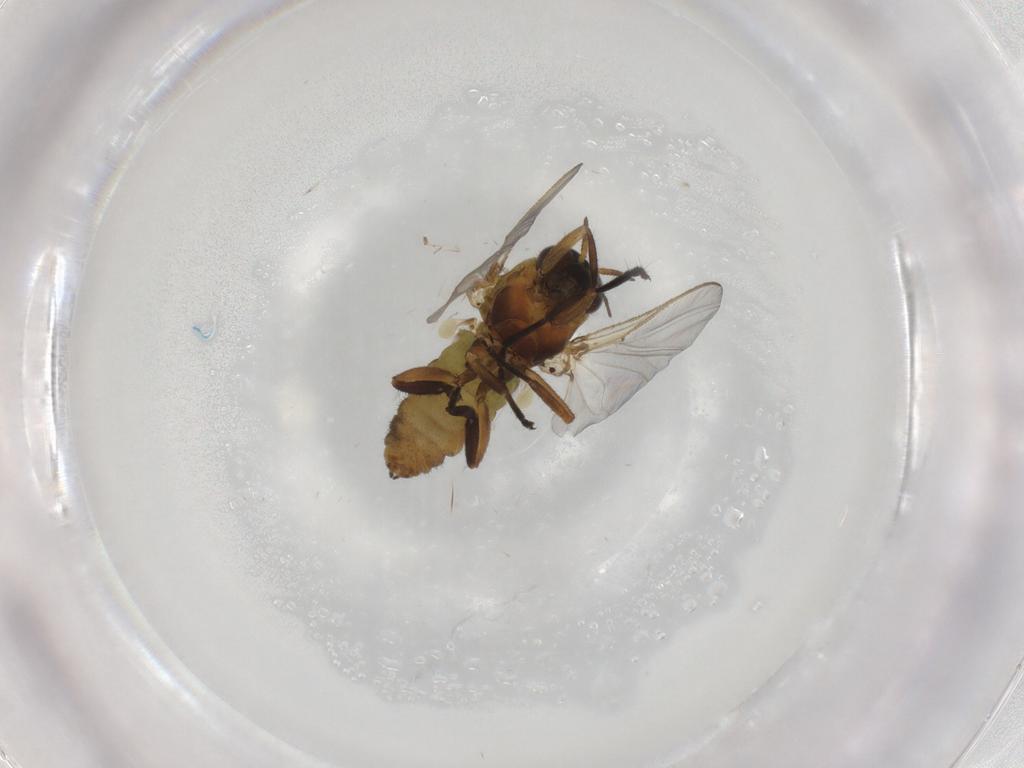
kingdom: Animalia
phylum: Arthropoda
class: Insecta
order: Diptera
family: Simuliidae
